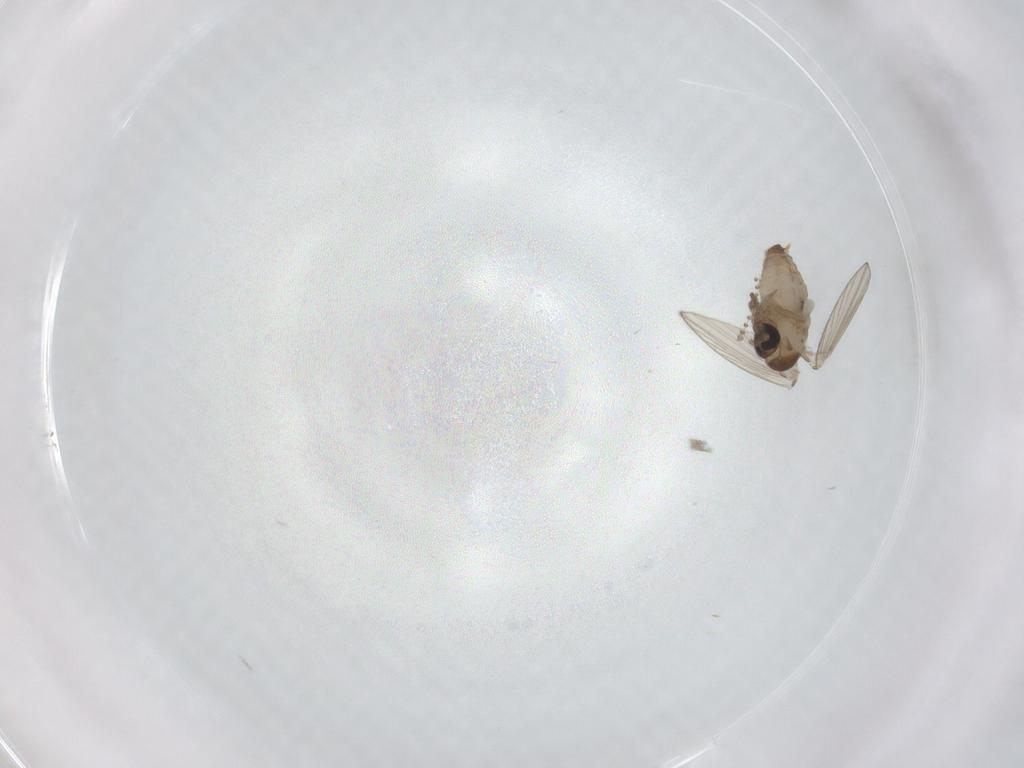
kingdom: Animalia
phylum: Arthropoda
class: Insecta
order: Diptera
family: Psychodidae
